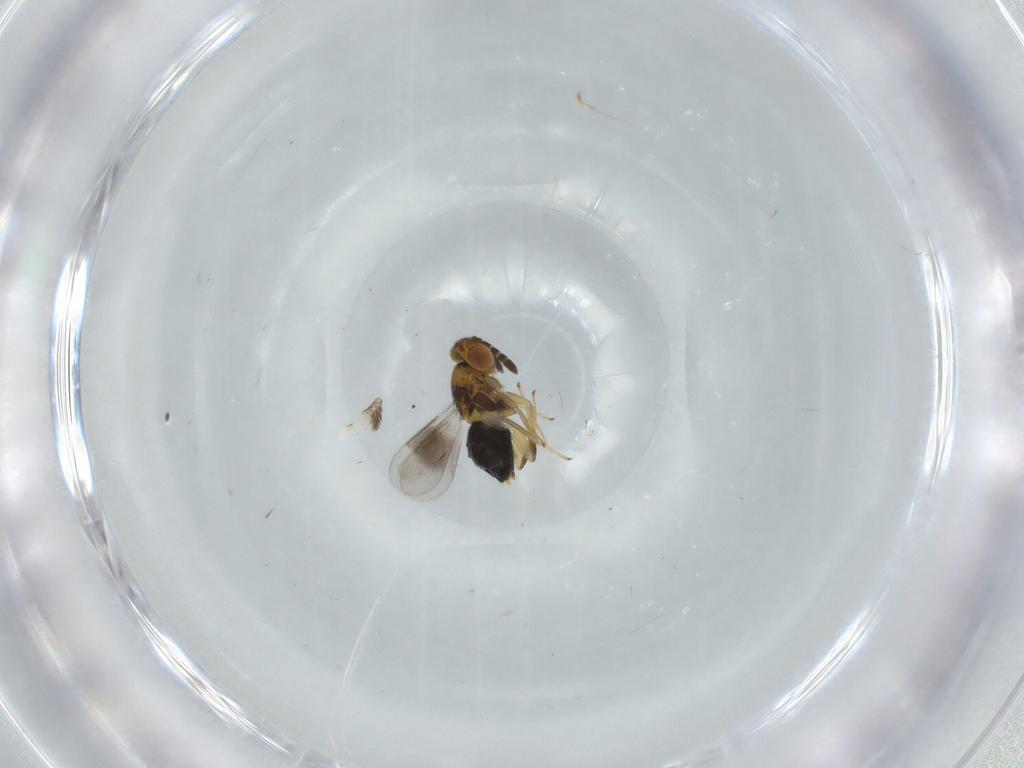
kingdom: Animalia
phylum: Arthropoda
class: Insecta
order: Hymenoptera
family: Aphelinidae
